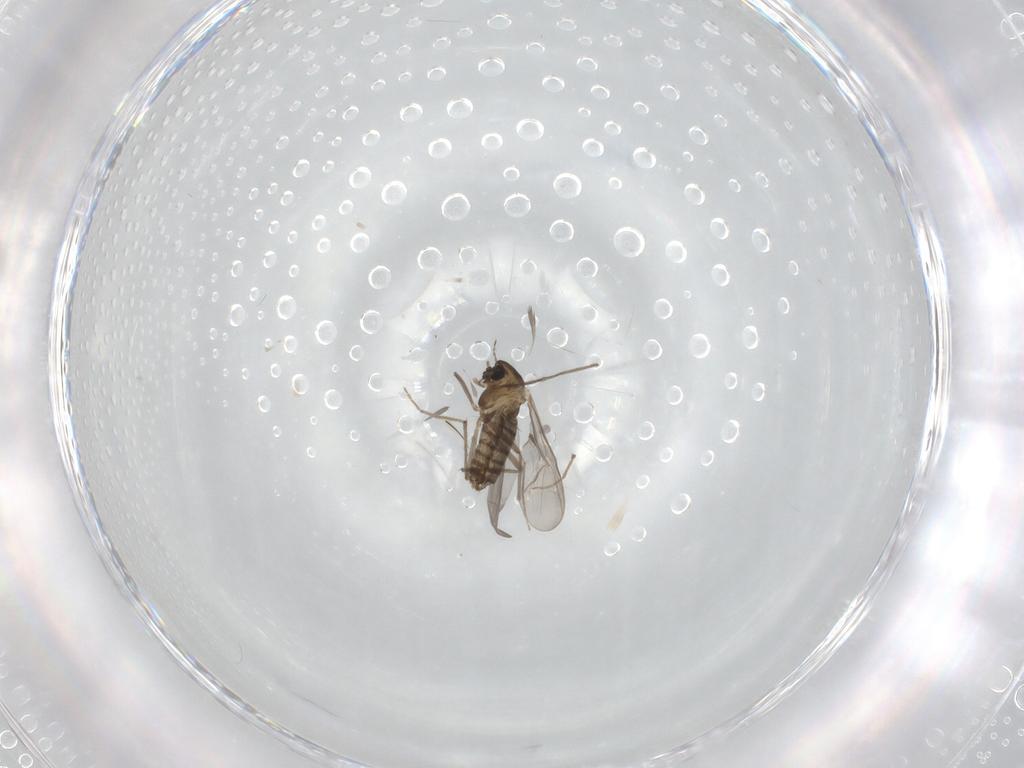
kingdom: Animalia
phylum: Arthropoda
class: Insecta
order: Diptera
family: Chironomidae
